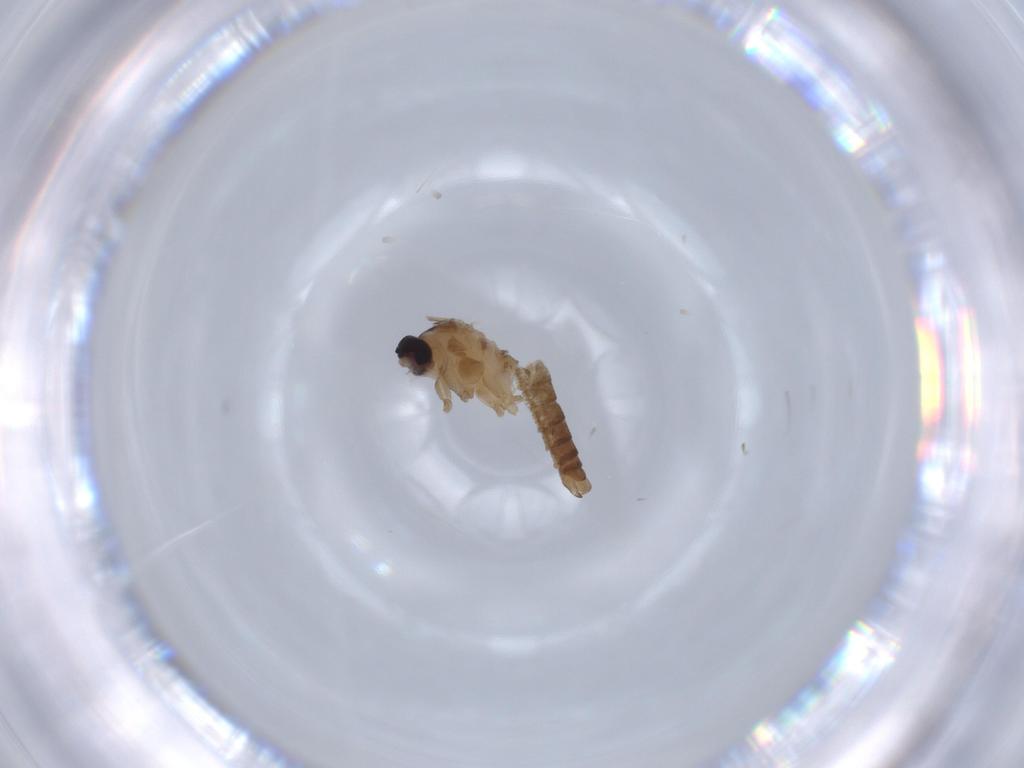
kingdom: Animalia
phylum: Arthropoda
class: Insecta
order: Diptera
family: Cecidomyiidae
